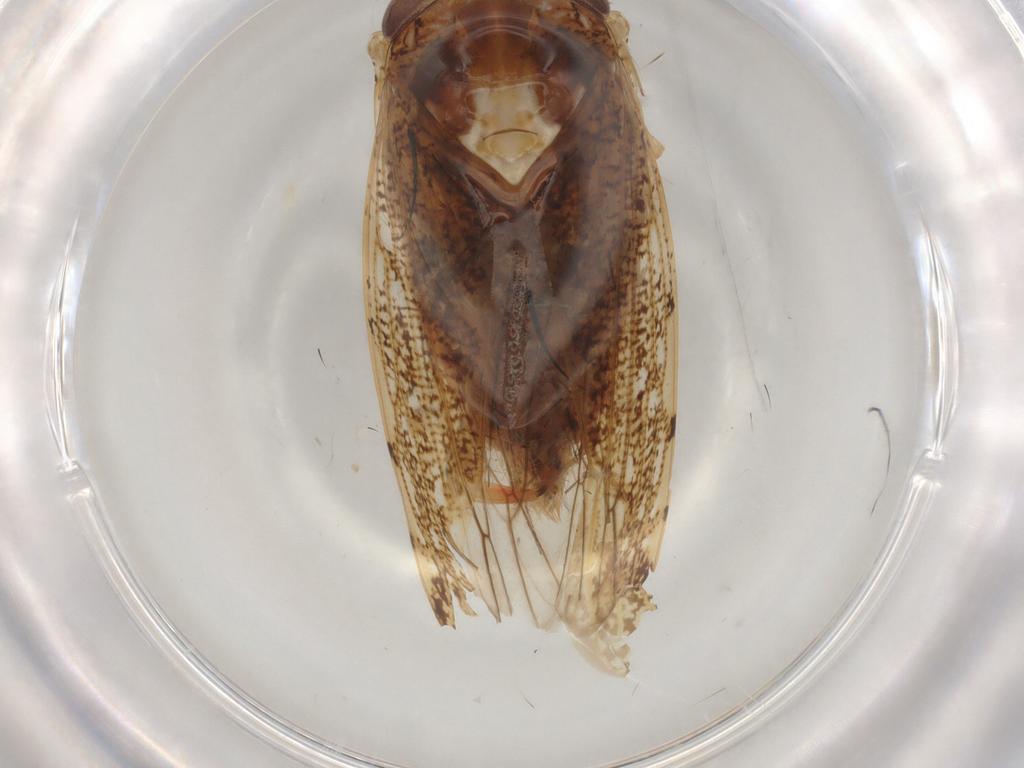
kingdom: Animalia
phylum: Arthropoda
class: Insecta
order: Hemiptera
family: Cicadellidae
